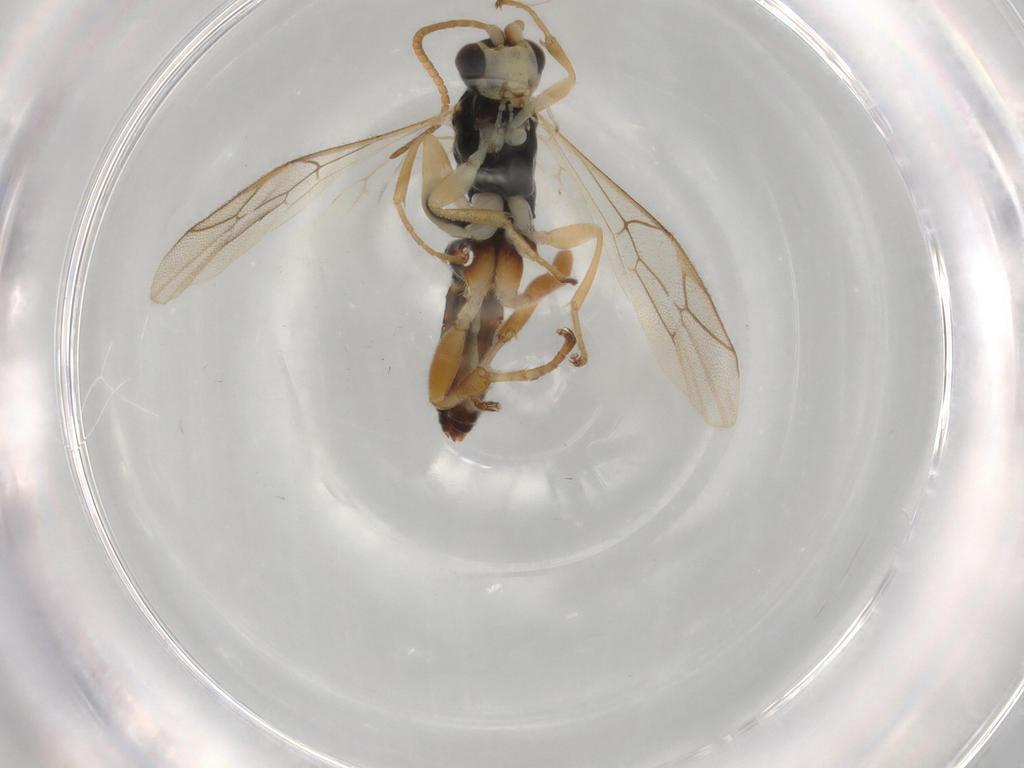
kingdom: Animalia
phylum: Arthropoda
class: Insecta
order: Hymenoptera
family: Ichneumonidae
